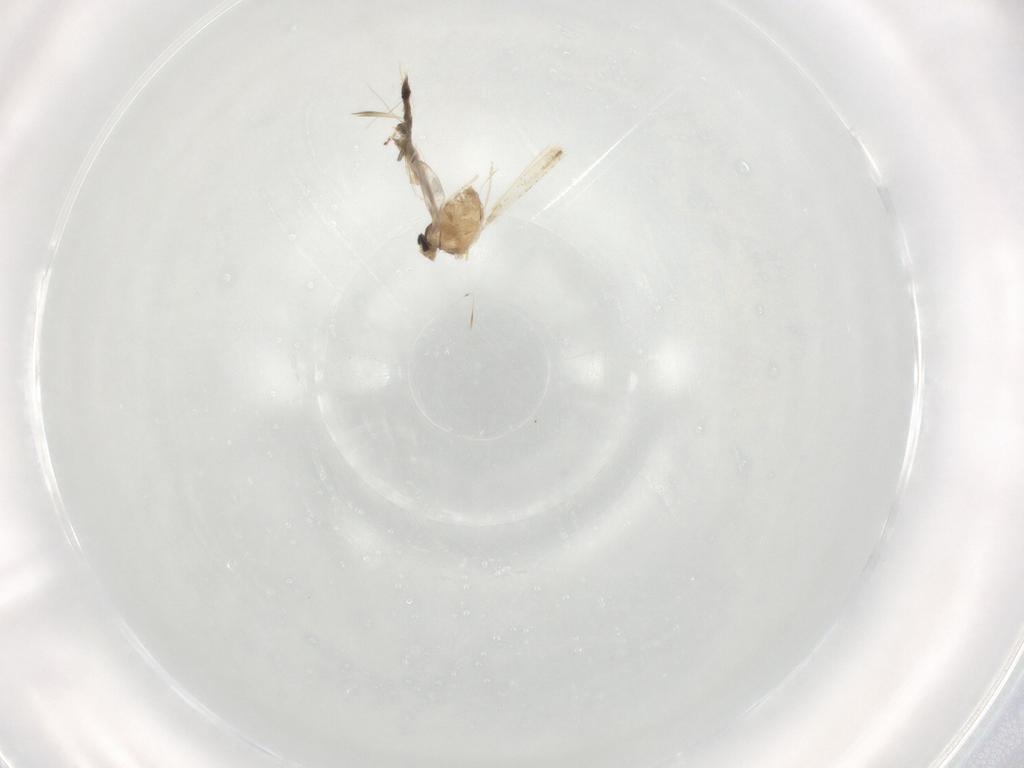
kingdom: Animalia
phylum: Arthropoda
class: Insecta
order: Diptera
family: Cecidomyiidae
